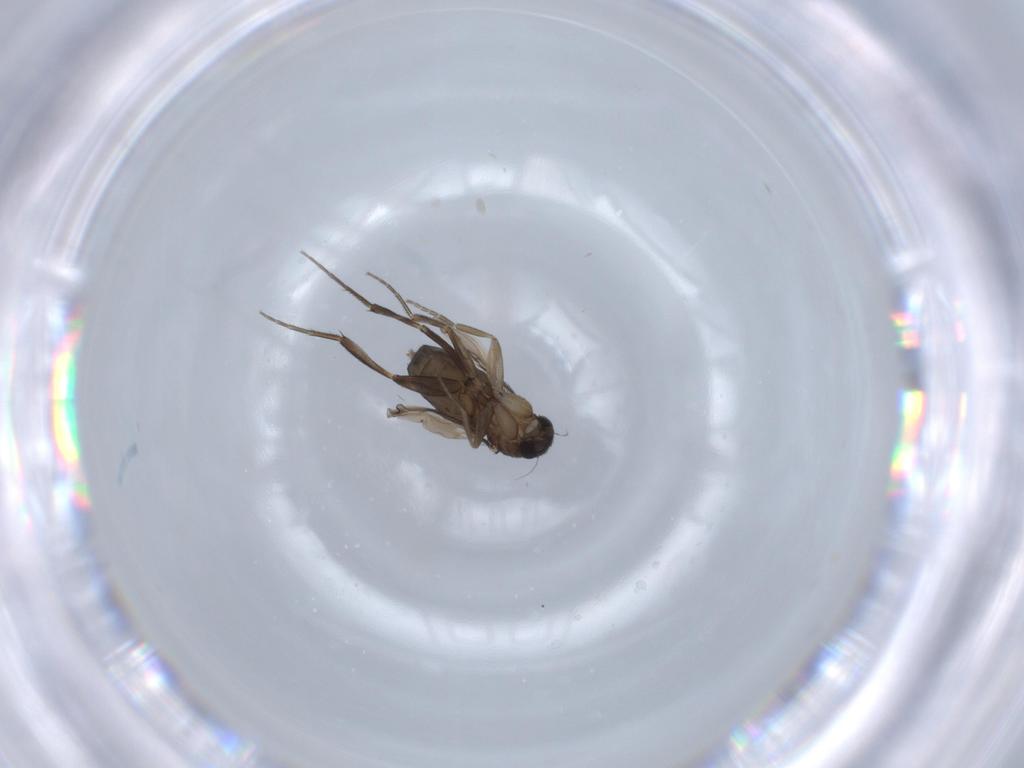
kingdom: Animalia
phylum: Arthropoda
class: Insecta
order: Diptera
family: Phoridae
